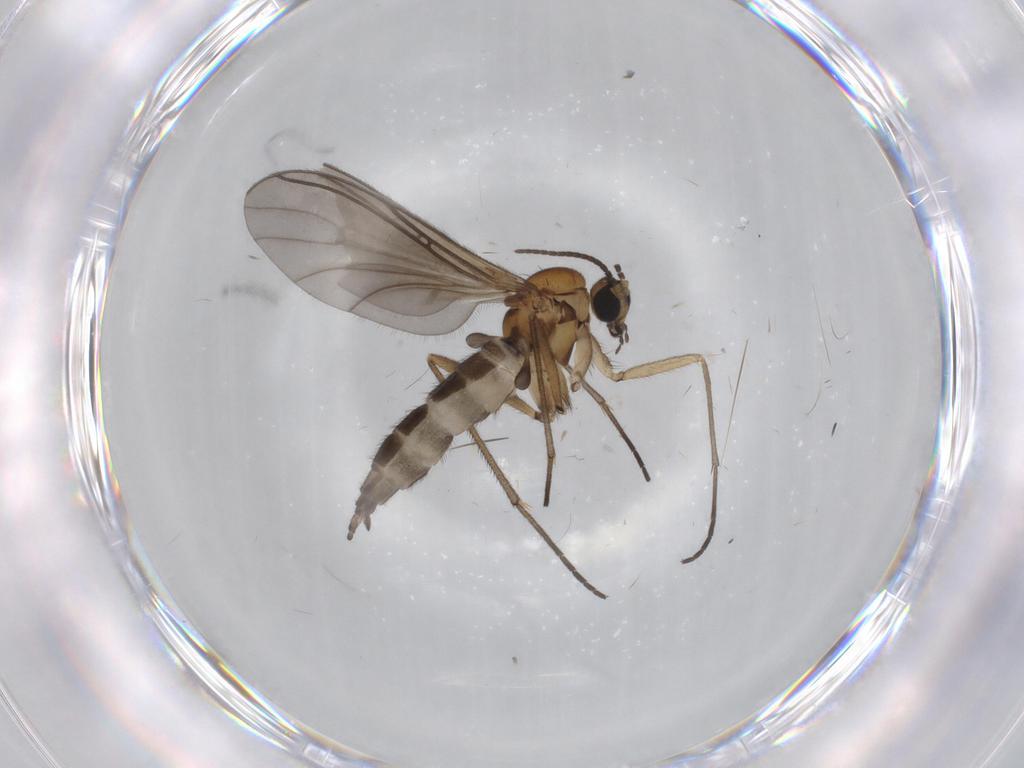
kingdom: Animalia
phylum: Arthropoda
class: Insecta
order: Diptera
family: Sciaridae
